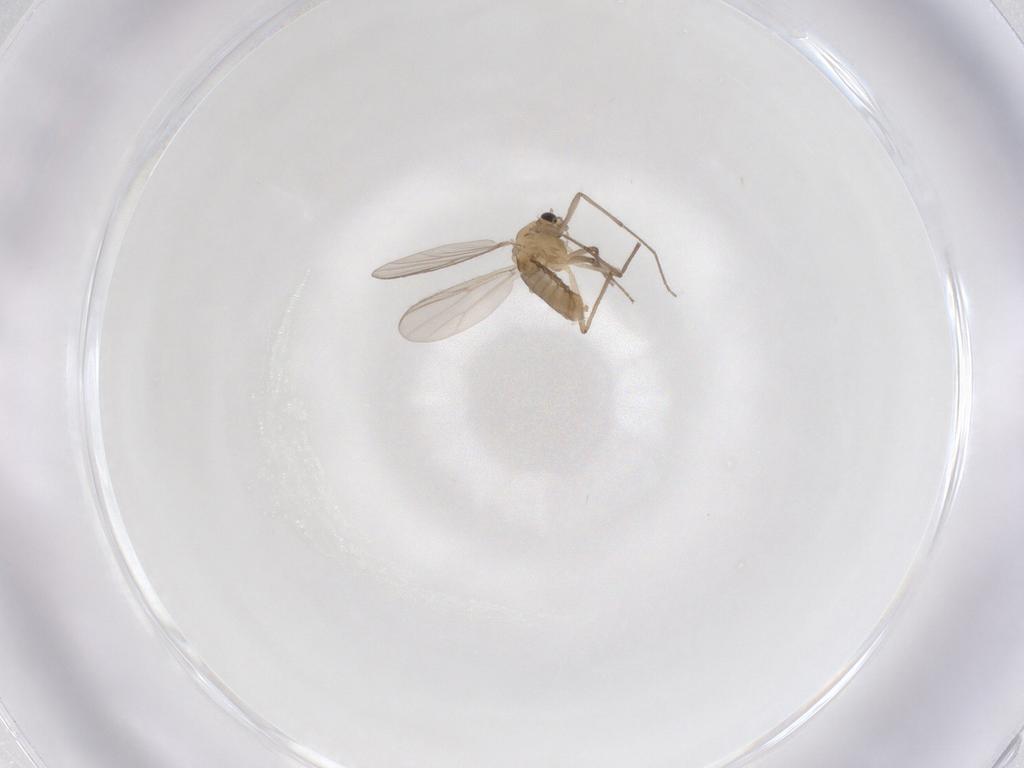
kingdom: Animalia
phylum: Arthropoda
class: Insecta
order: Diptera
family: Chironomidae
